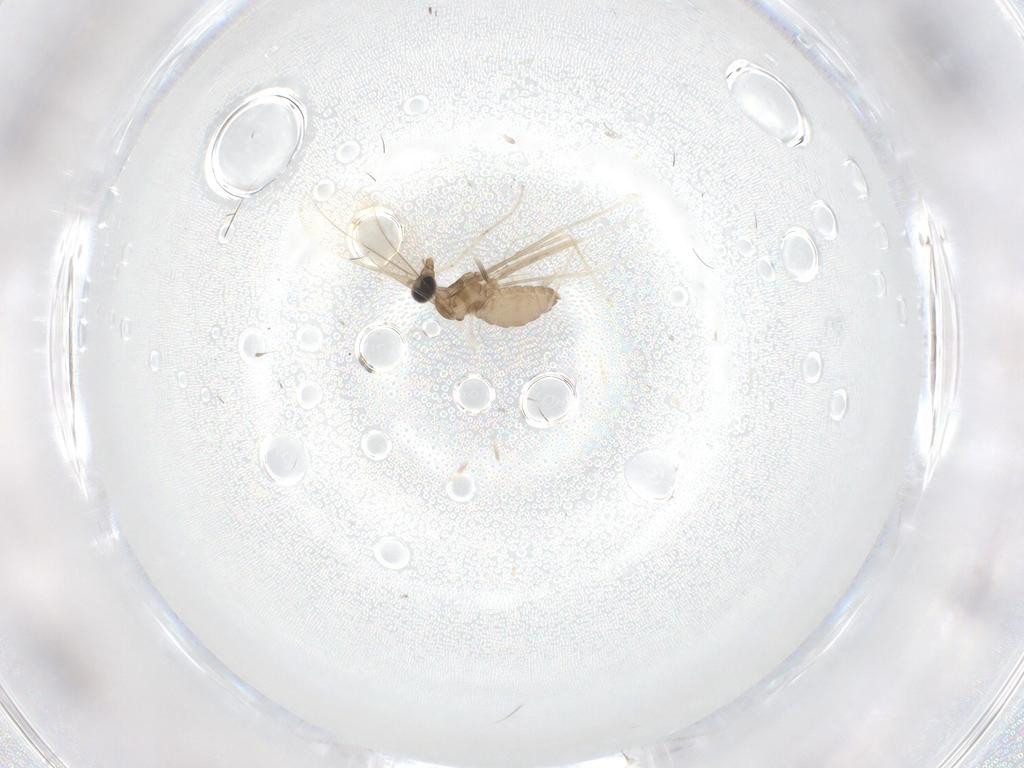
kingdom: Animalia
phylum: Arthropoda
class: Insecta
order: Diptera
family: Cecidomyiidae
